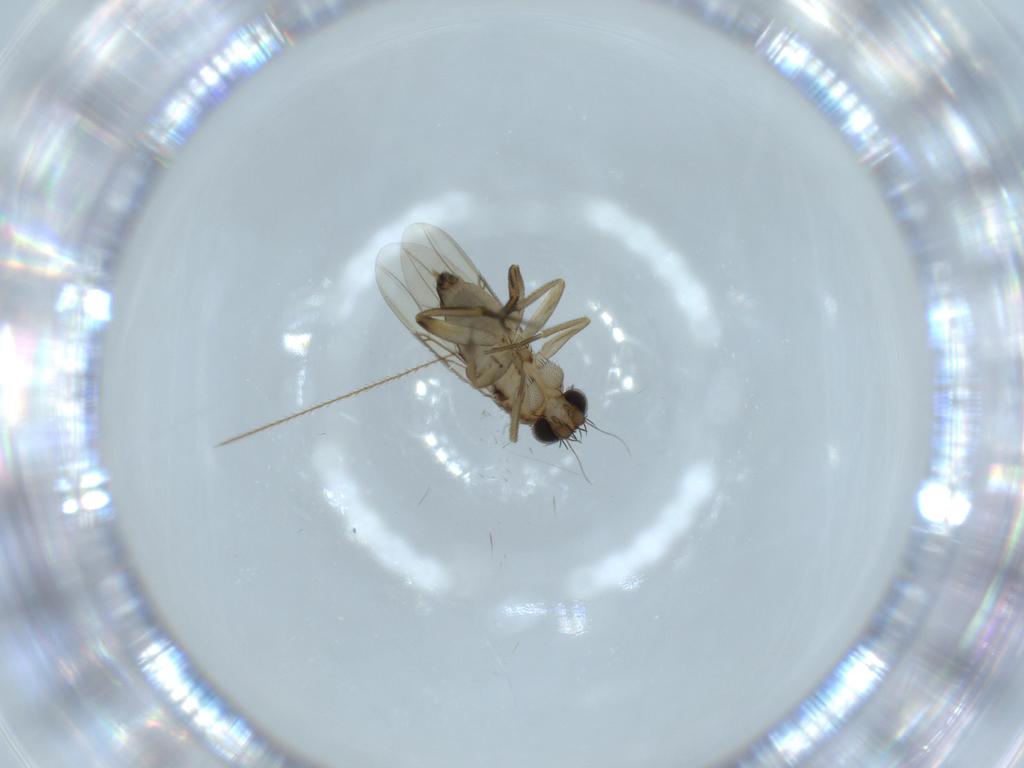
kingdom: Animalia
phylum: Arthropoda
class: Insecta
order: Diptera
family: Phoridae
